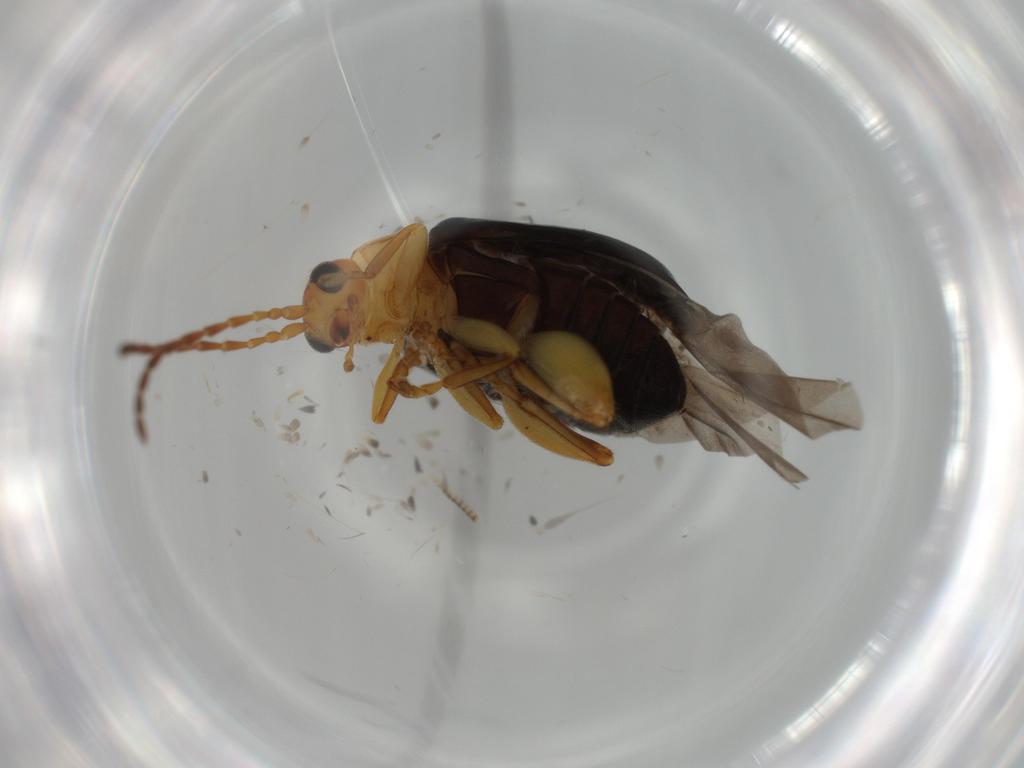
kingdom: Animalia
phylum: Arthropoda
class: Insecta
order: Coleoptera
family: Chrysomelidae
